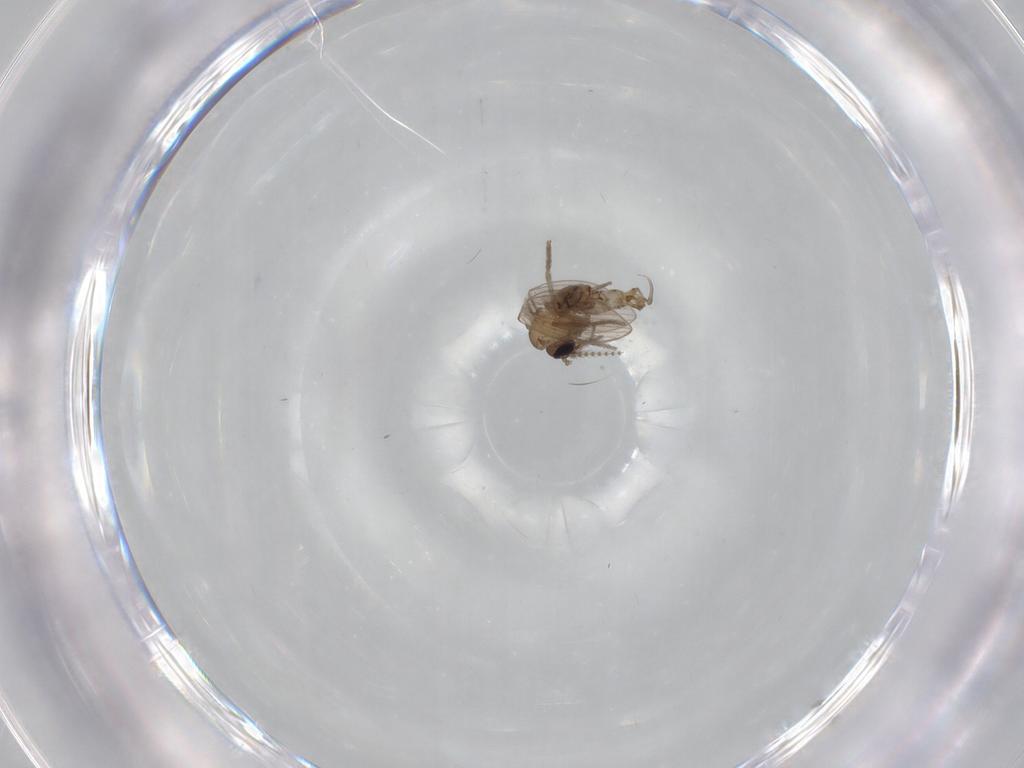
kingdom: Animalia
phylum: Arthropoda
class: Insecta
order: Diptera
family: Psychodidae
